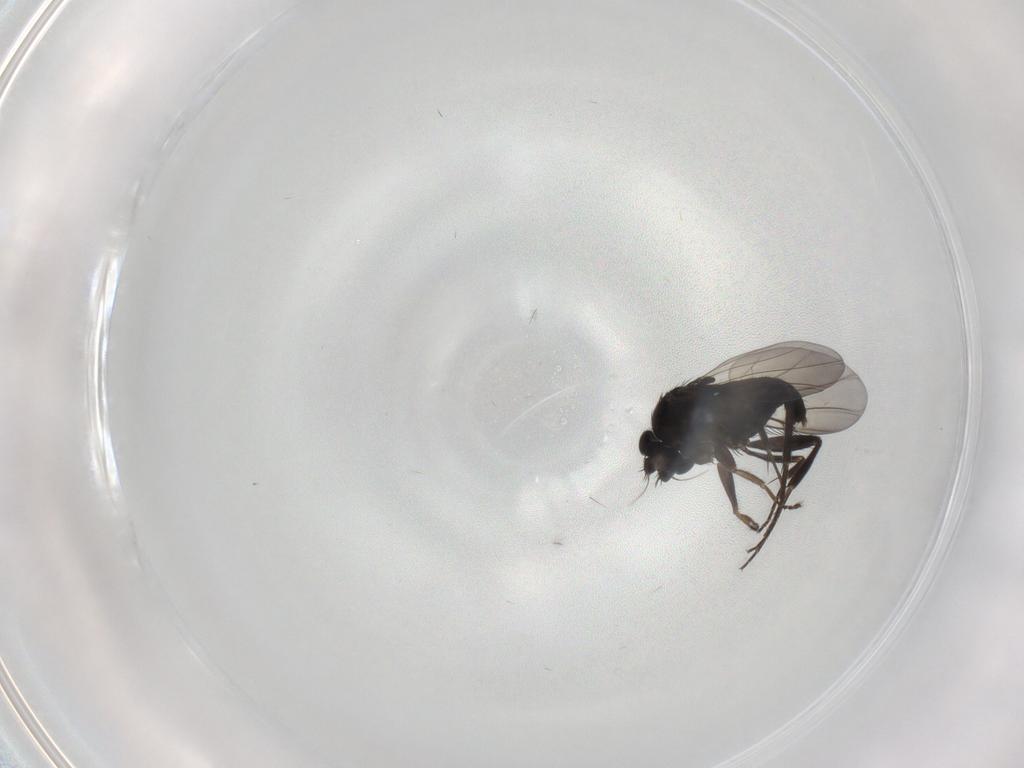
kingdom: Animalia
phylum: Arthropoda
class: Insecta
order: Diptera
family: Phoridae
